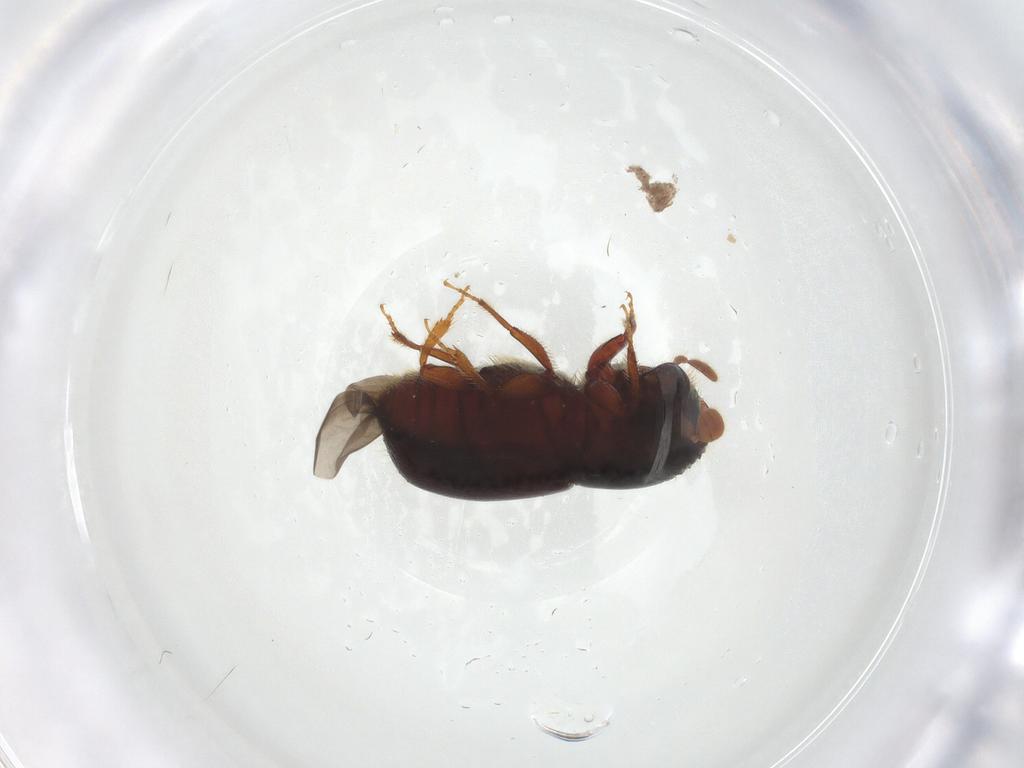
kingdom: Animalia
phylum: Arthropoda
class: Insecta
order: Coleoptera
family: Curculionidae
